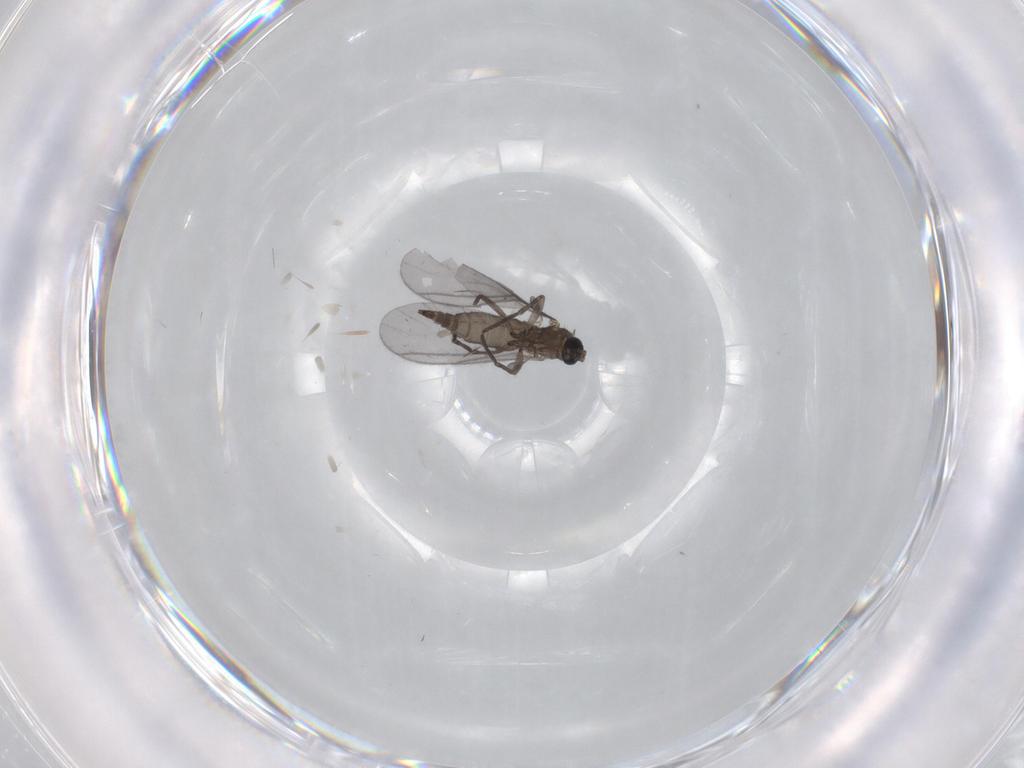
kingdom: Animalia
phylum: Arthropoda
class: Insecta
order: Diptera
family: Sciaridae
